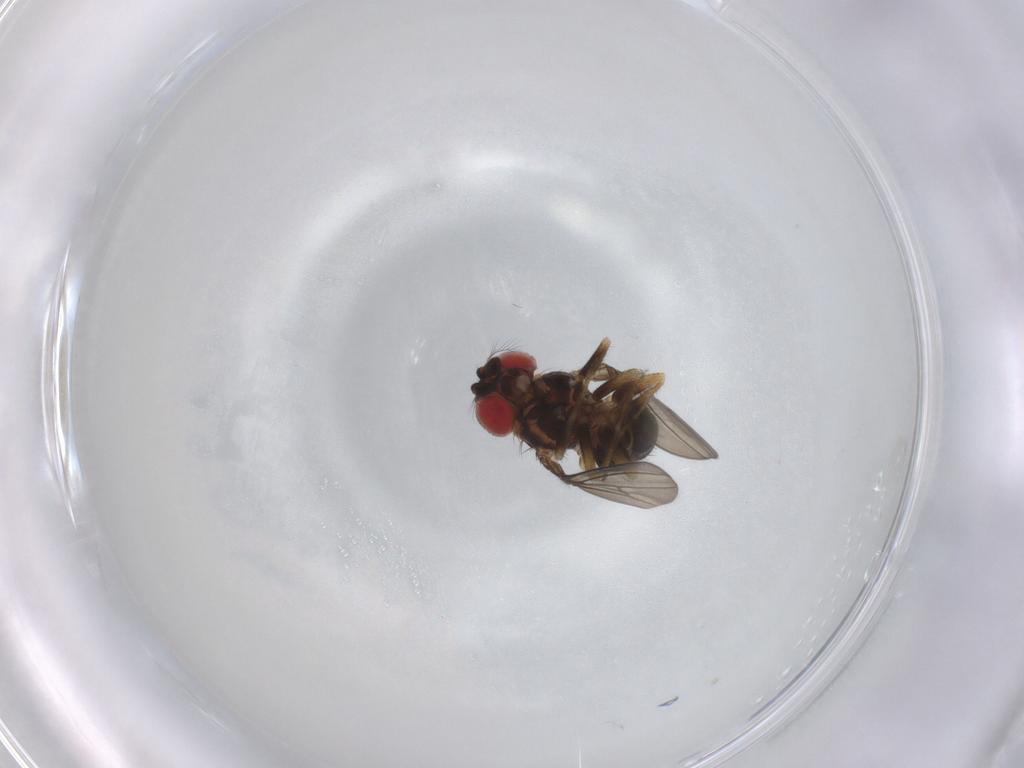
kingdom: Animalia
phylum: Arthropoda
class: Insecta
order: Diptera
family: Drosophilidae
